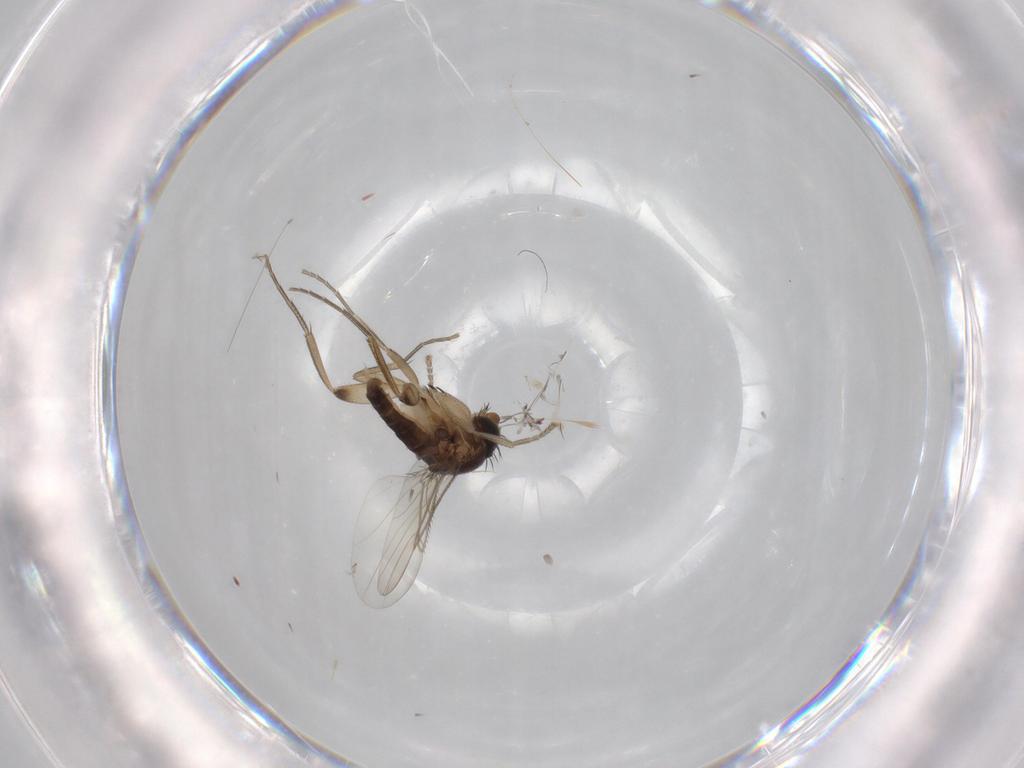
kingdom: Animalia
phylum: Arthropoda
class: Insecta
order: Diptera
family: Phoridae
